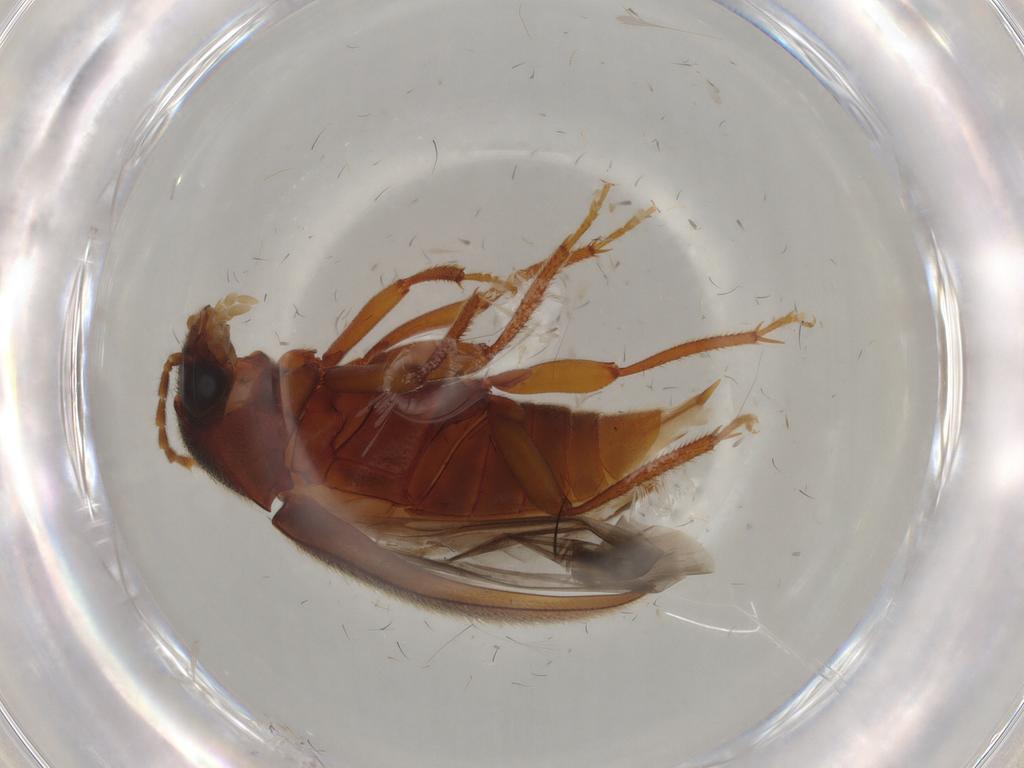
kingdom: Animalia
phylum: Arthropoda
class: Insecta
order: Coleoptera
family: Ptilodactylidae
